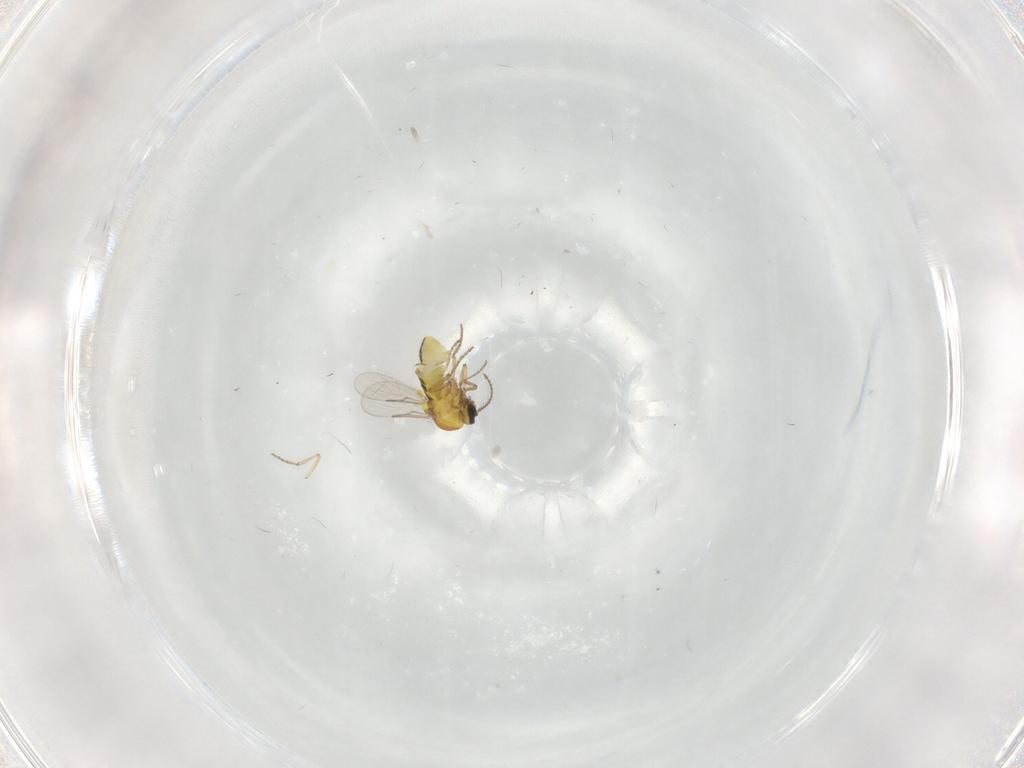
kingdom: Animalia
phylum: Arthropoda
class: Insecta
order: Diptera
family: Ceratopogonidae
